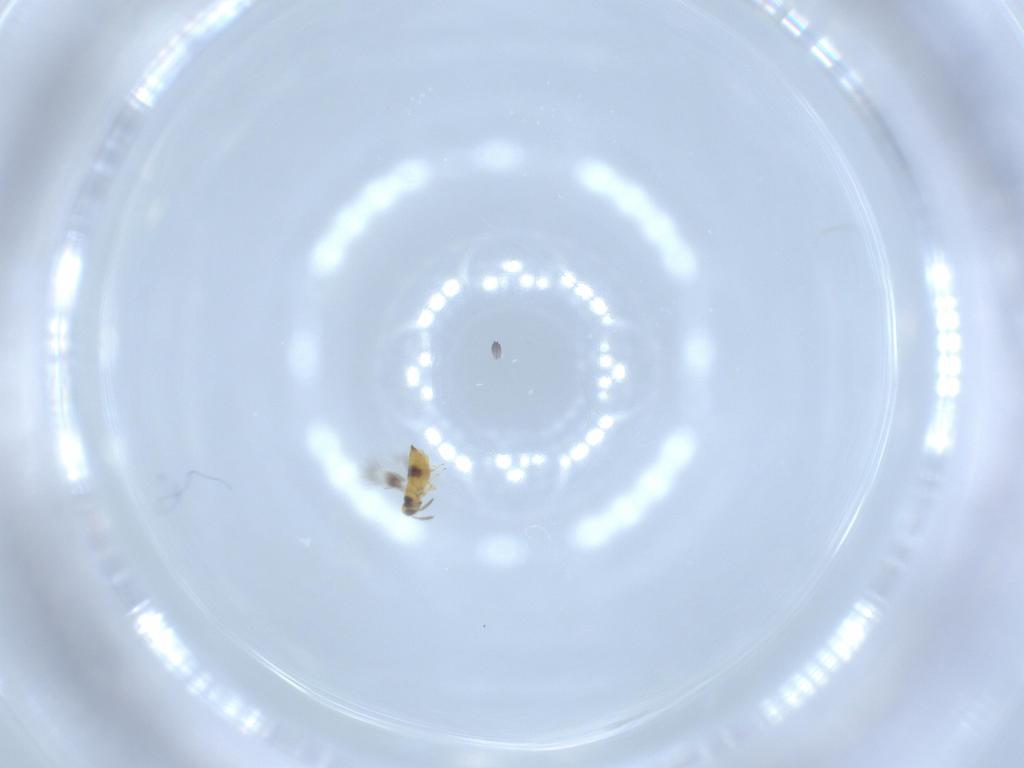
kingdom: Animalia
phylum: Arthropoda
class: Insecta
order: Hymenoptera
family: Signiphoridae
